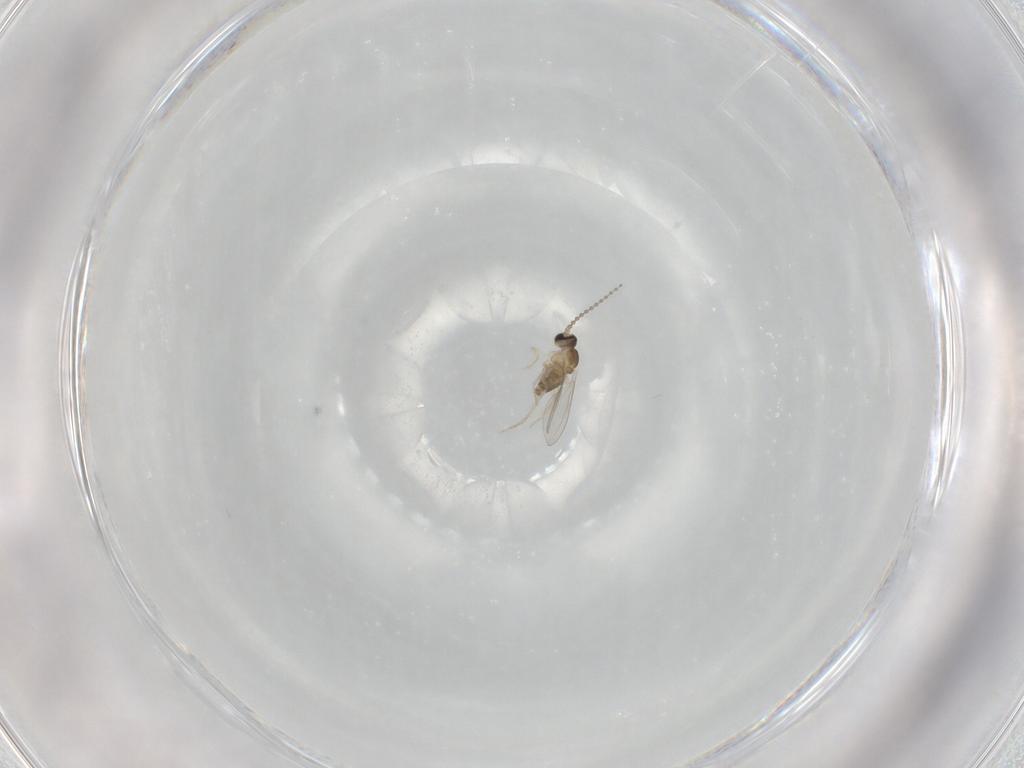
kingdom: Animalia
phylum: Arthropoda
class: Insecta
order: Diptera
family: Cecidomyiidae
